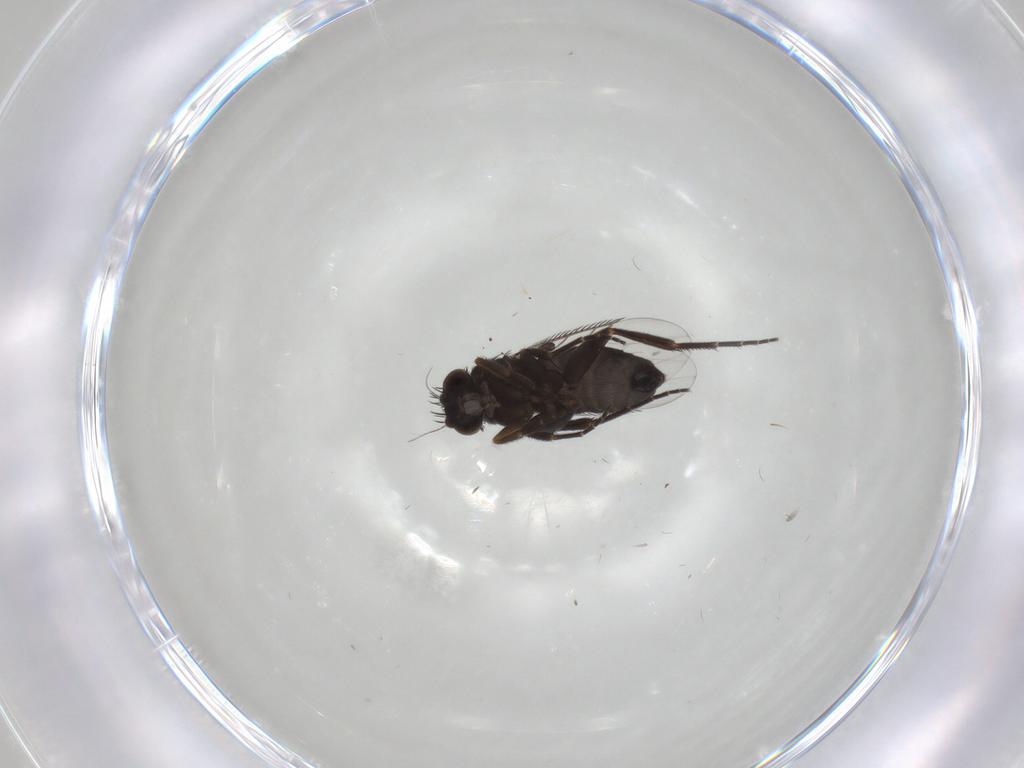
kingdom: Animalia
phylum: Arthropoda
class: Insecta
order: Diptera
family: Phoridae
